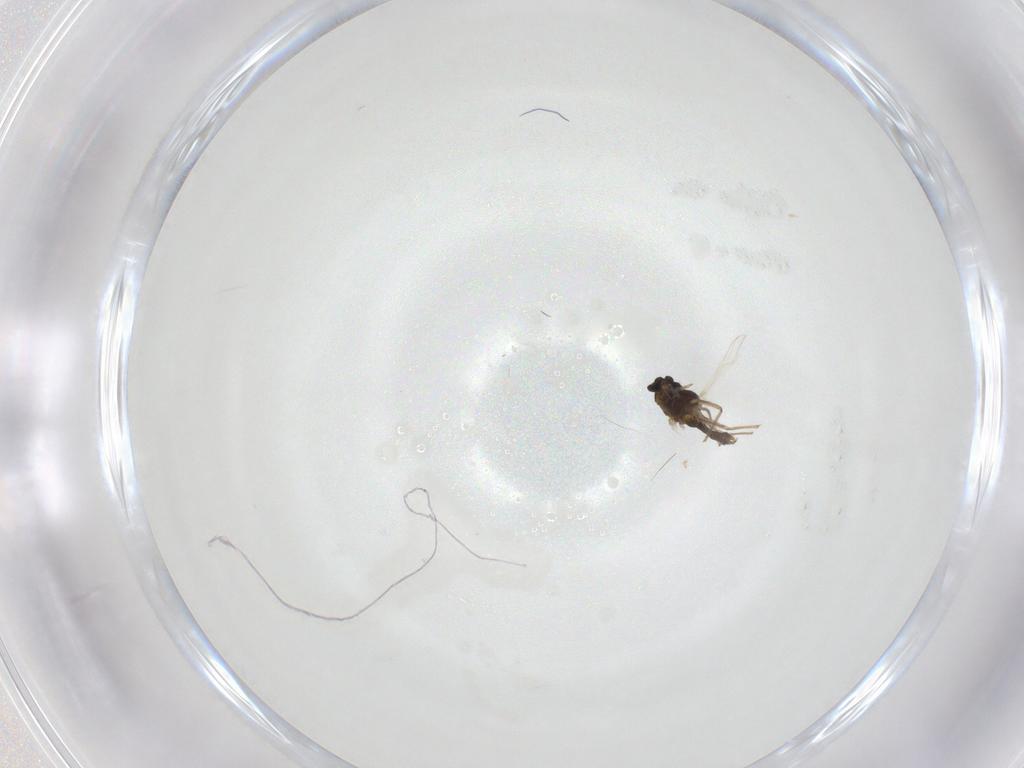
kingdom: Animalia
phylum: Arthropoda
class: Insecta
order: Diptera
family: Chironomidae
